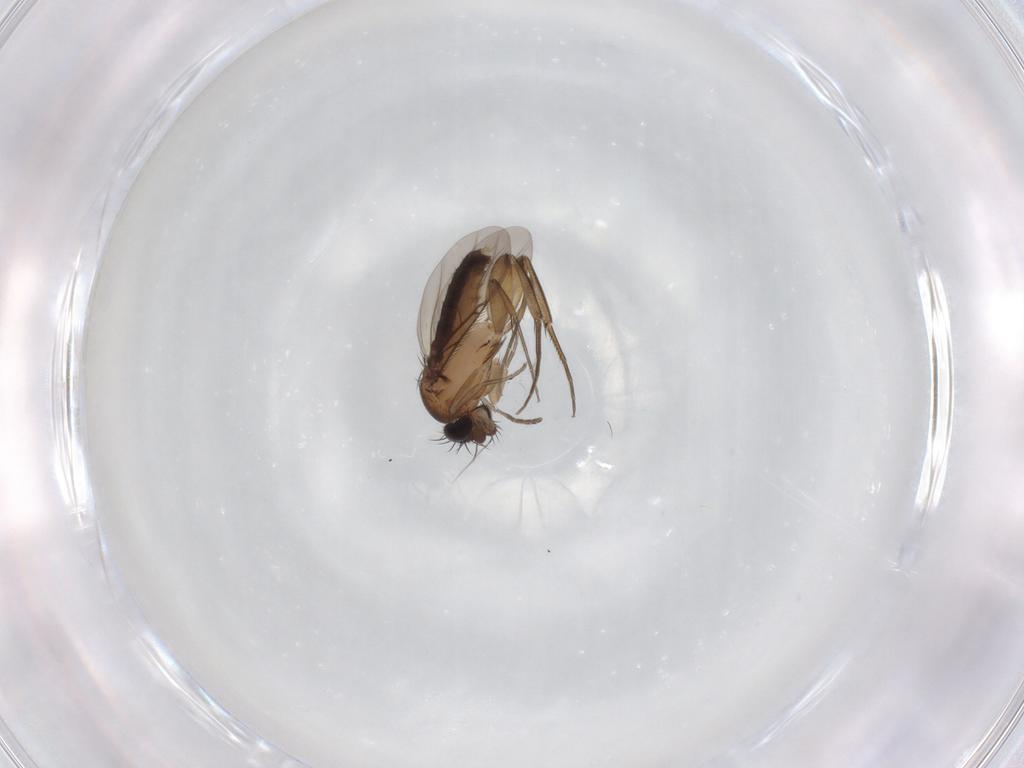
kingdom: Animalia
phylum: Arthropoda
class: Insecta
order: Diptera
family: Phoridae
